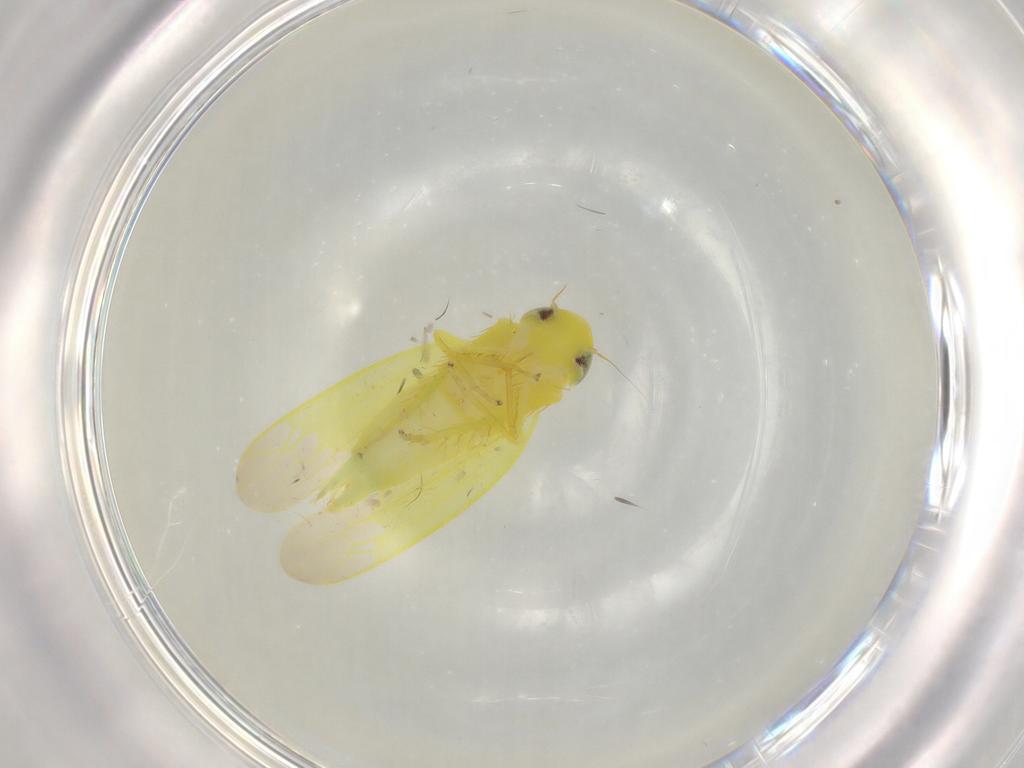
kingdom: Animalia
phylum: Arthropoda
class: Insecta
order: Hemiptera
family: Cicadellidae
